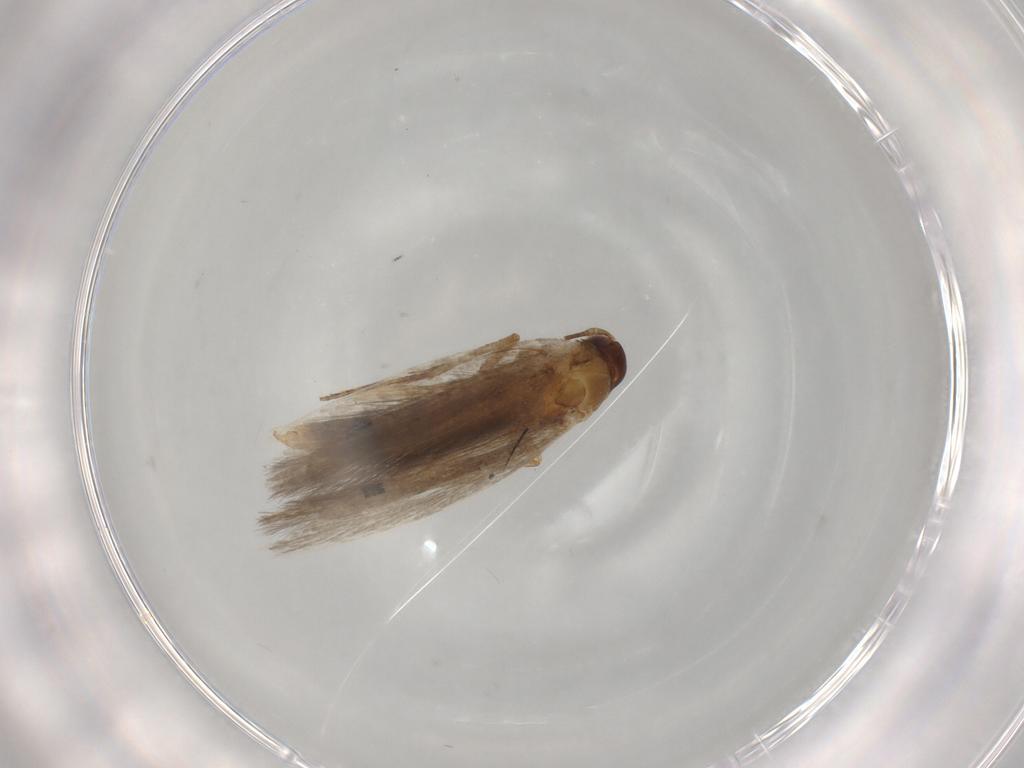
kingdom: Animalia
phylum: Arthropoda
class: Insecta
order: Lepidoptera
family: Gelechiidae
